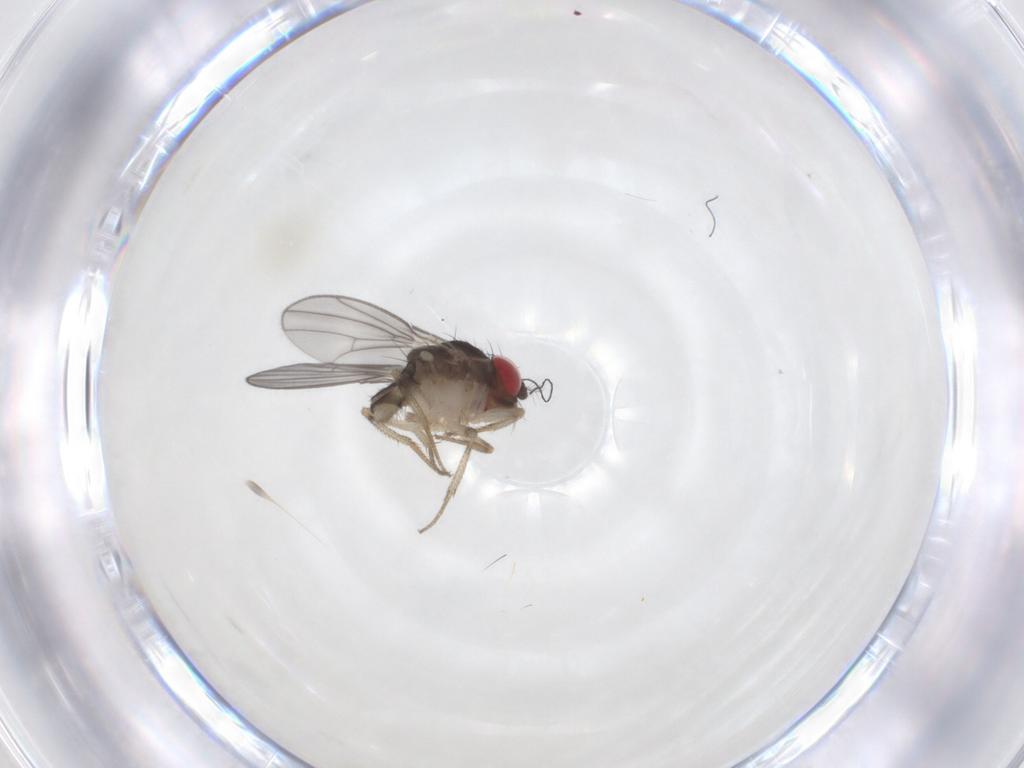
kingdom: Animalia
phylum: Arthropoda
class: Insecta
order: Diptera
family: Drosophilidae
